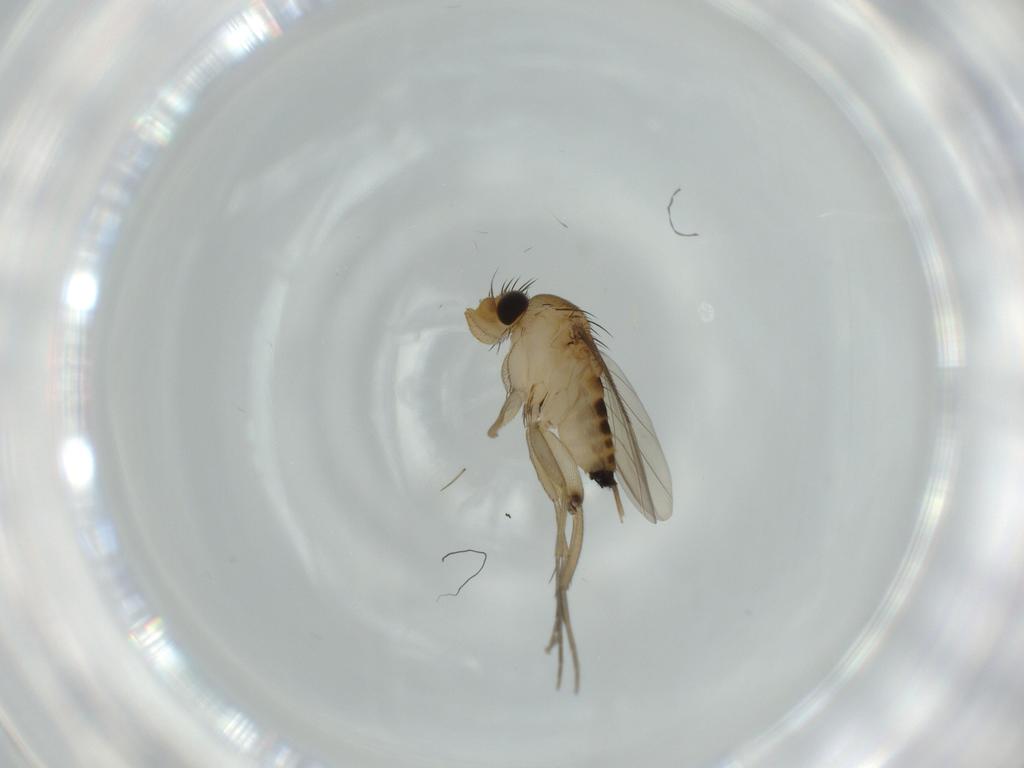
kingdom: Animalia
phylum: Arthropoda
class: Insecta
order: Diptera
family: Phoridae
